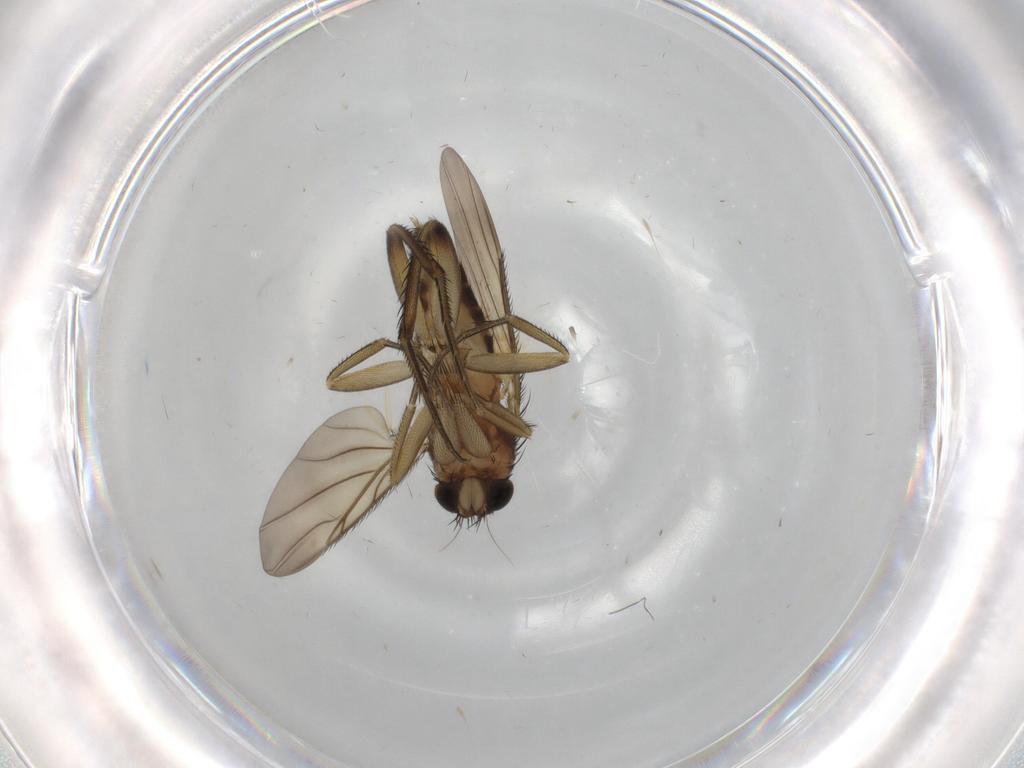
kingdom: Animalia
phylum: Arthropoda
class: Insecta
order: Diptera
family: Phoridae
